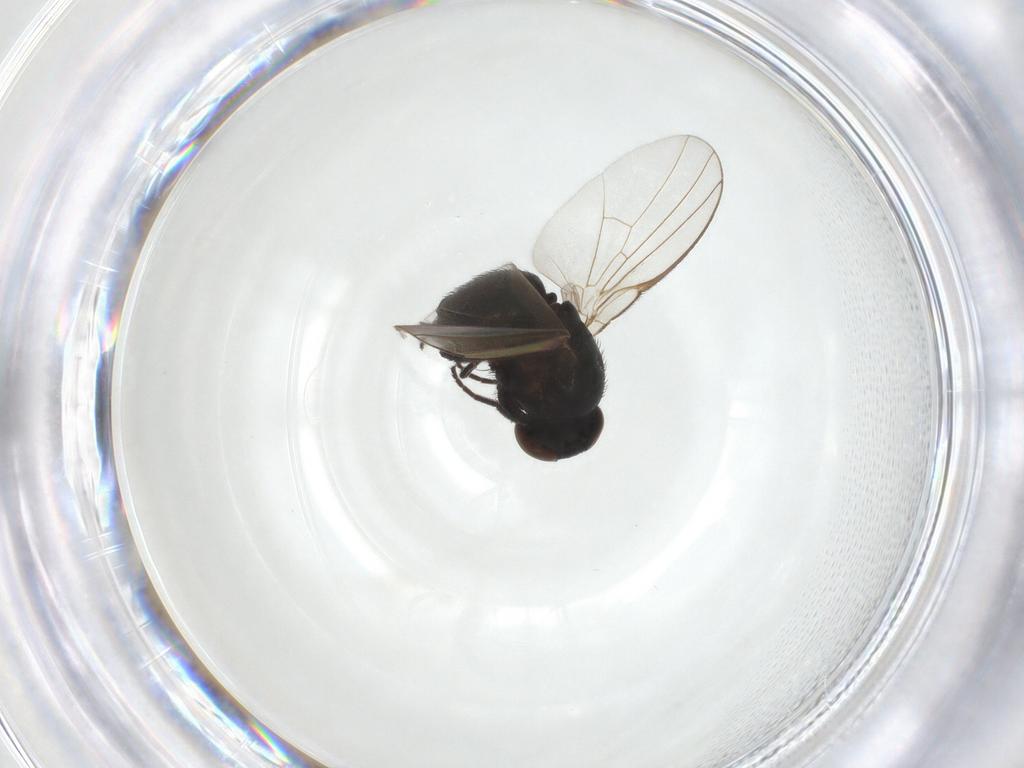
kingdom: Animalia
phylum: Arthropoda
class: Insecta
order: Diptera
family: Agromyzidae
